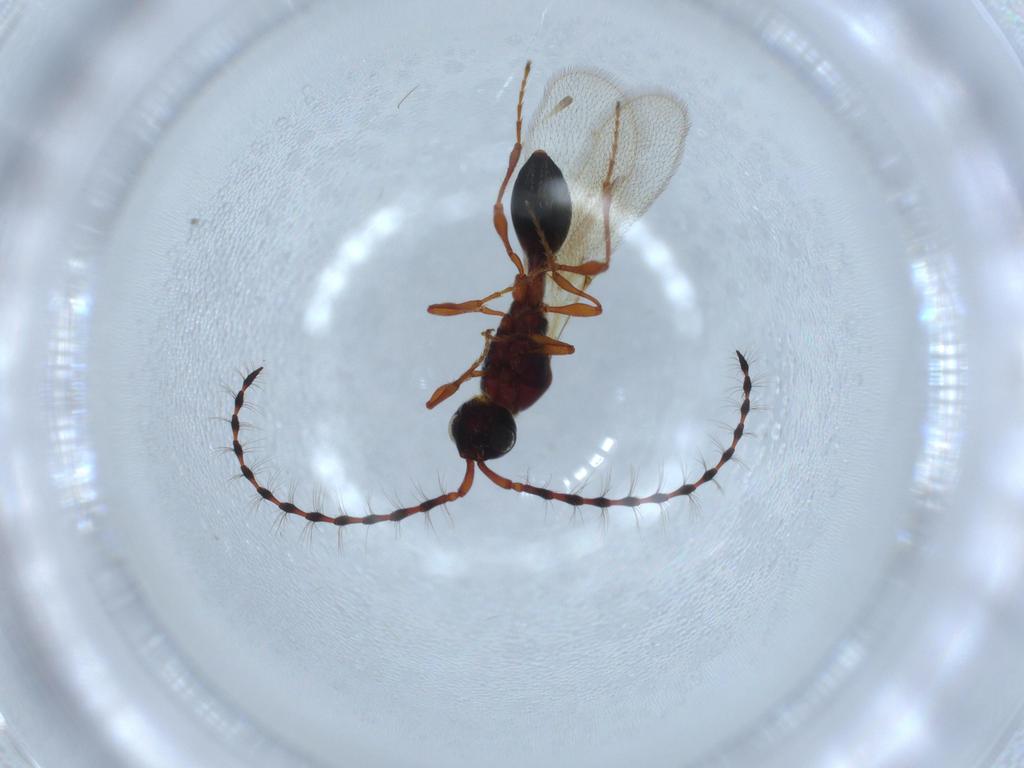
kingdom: Animalia
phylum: Arthropoda
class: Insecta
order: Hymenoptera
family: Diapriidae
